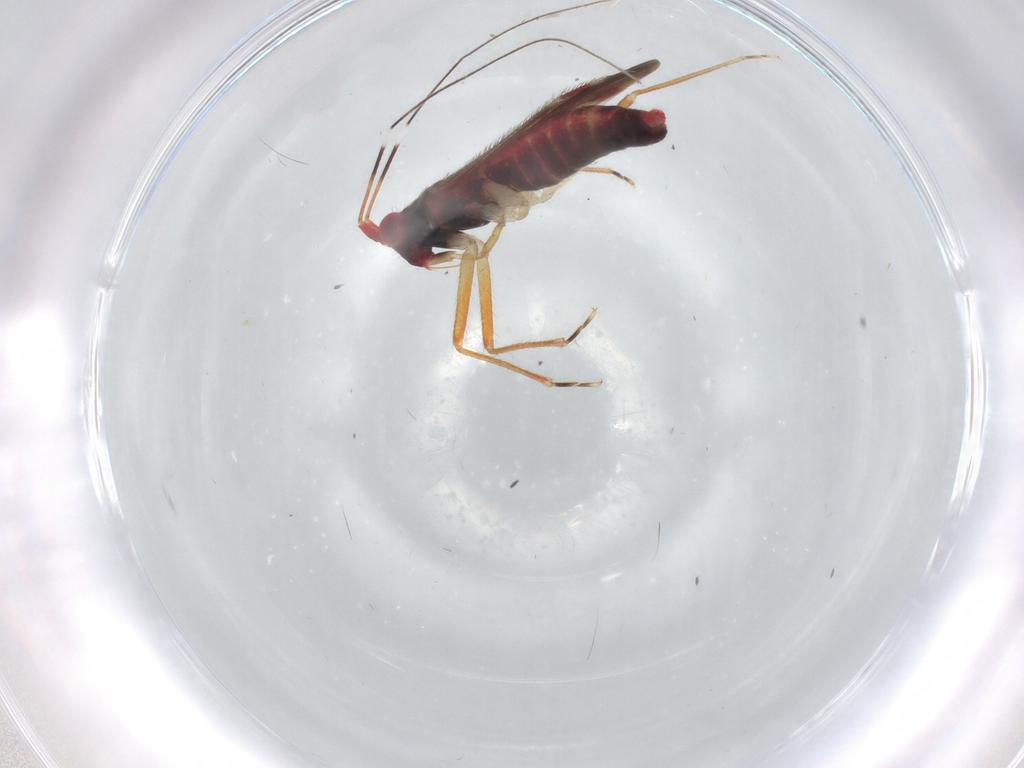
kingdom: Animalia
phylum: Arthropoda
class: Insecta
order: Hemiptera
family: Miridae
